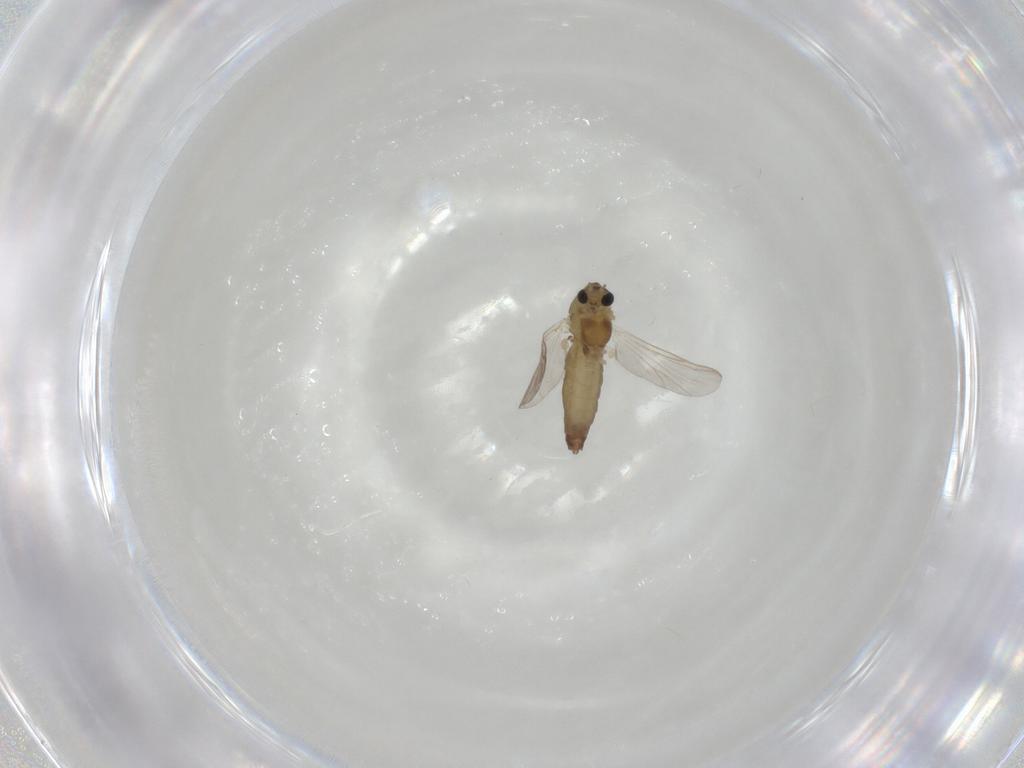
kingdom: Animalia
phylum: Arthropoda
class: Insecta
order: Diptera
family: Chironomidae
